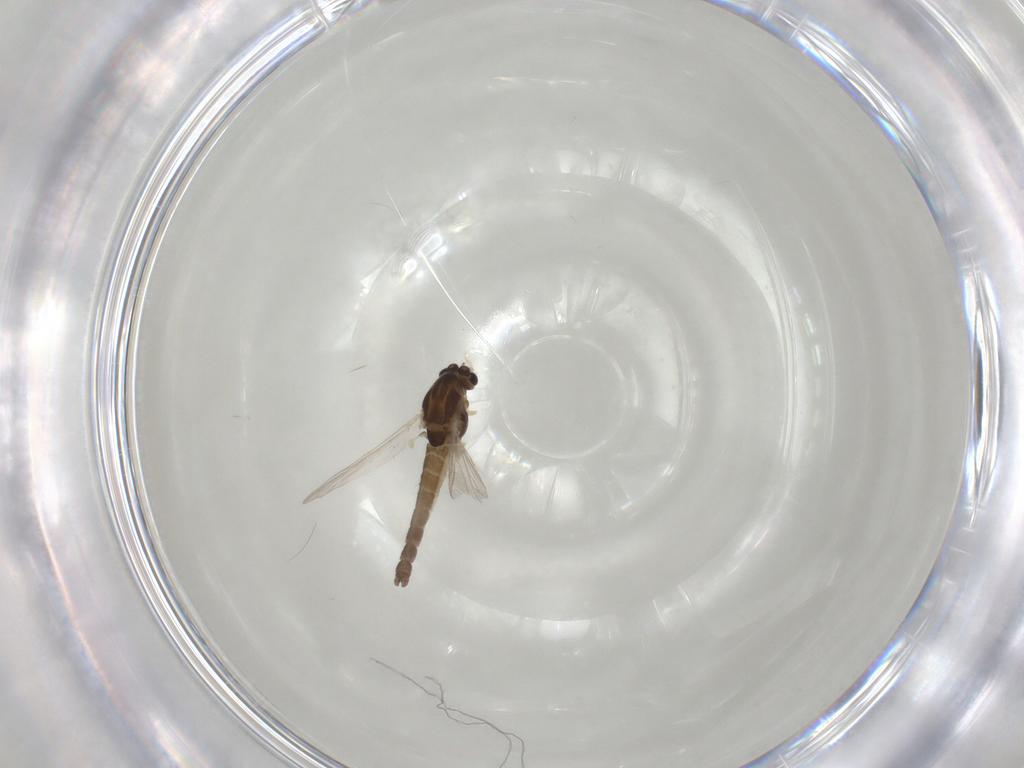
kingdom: Animalia
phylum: Arthropoda
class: Insecta
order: Diptera
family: Chironomidae
